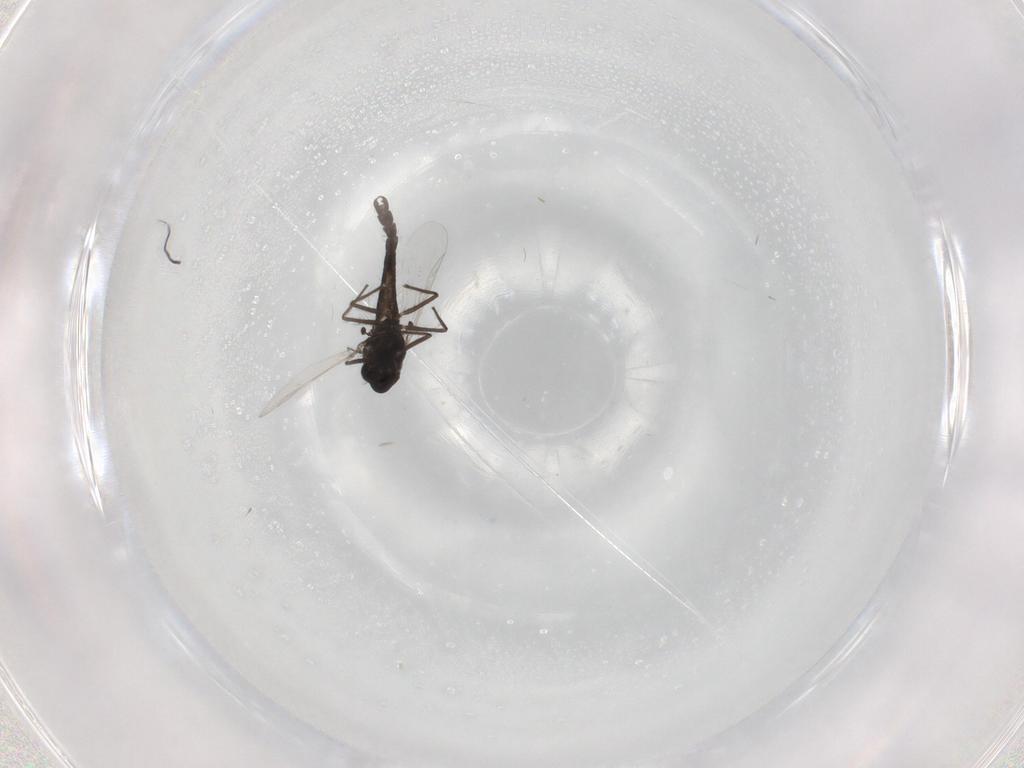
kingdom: Animalia
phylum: Arthropoda
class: Insecta
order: Diptera
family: Chironomidae
